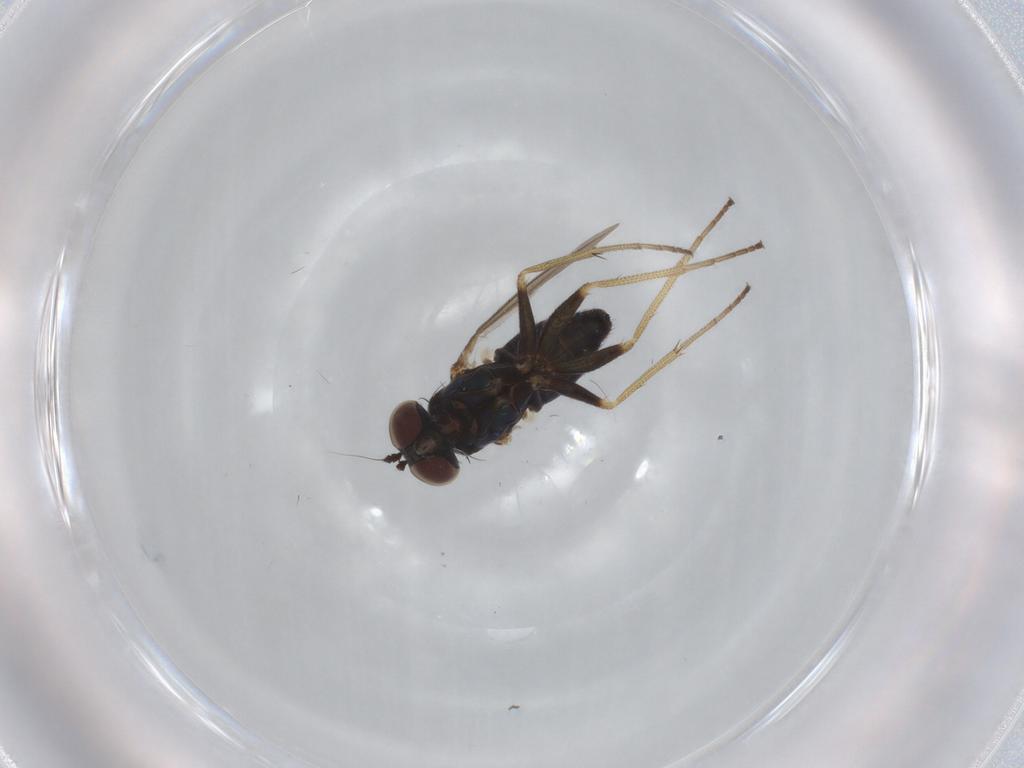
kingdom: Animalia
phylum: Arthropoda
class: Insecta
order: Diptera
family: Dolichopodidae
